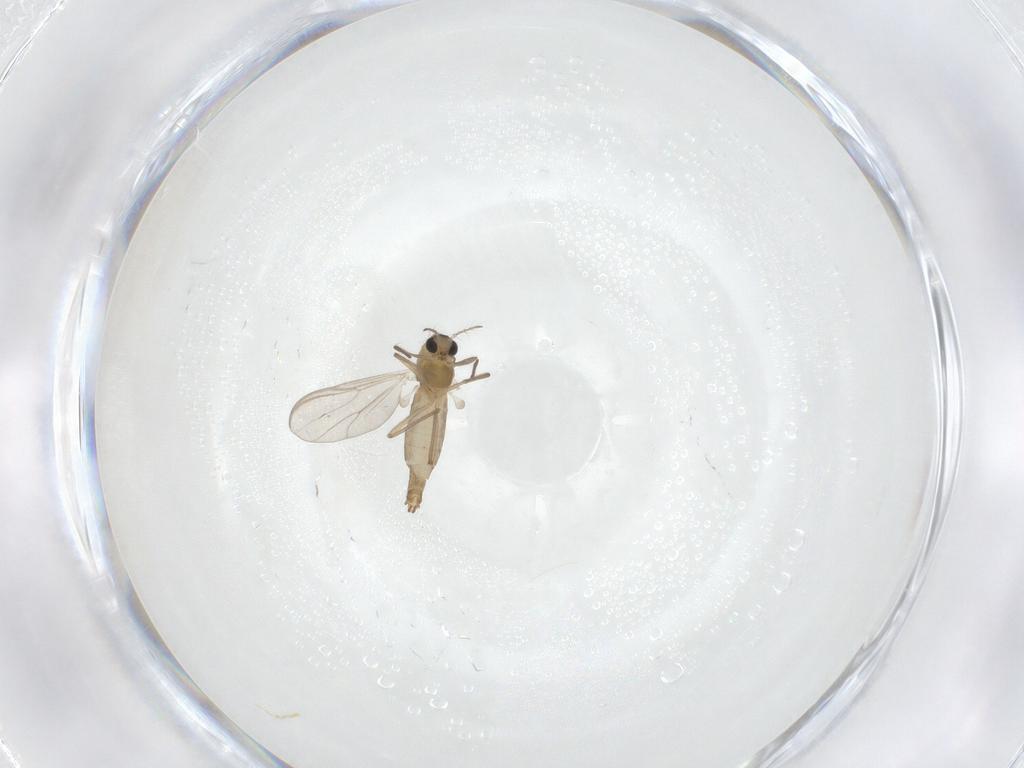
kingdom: Animalia
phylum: Arthropoda
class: Insecta
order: Diptera
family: Chironomidae
